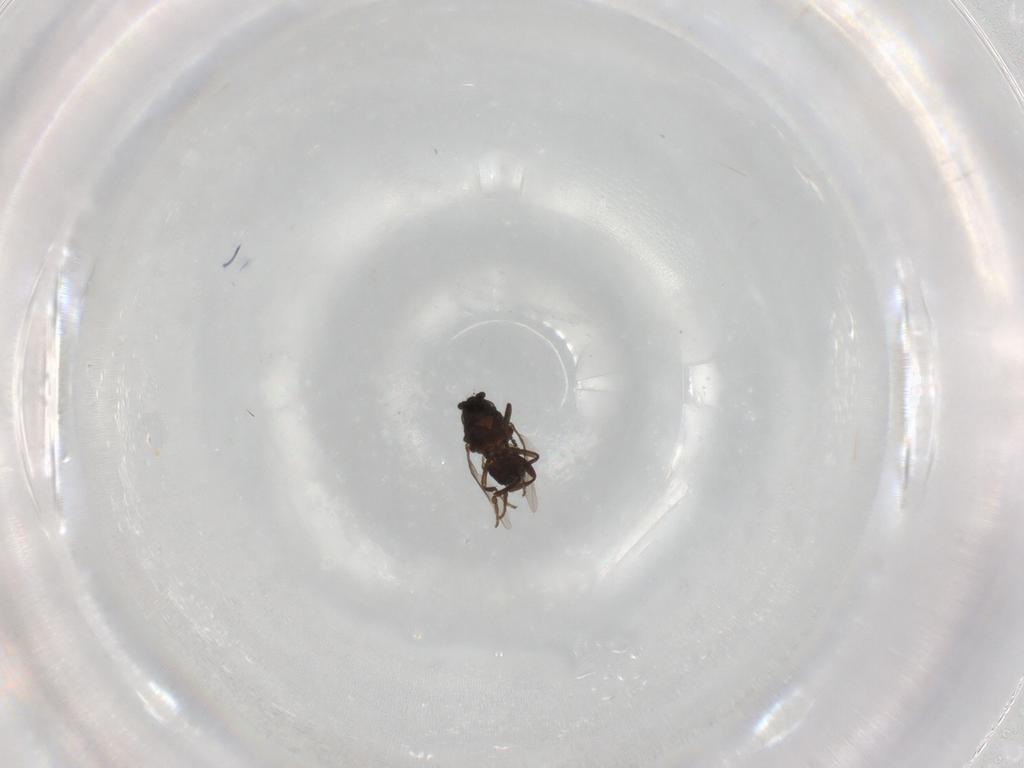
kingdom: Animalia
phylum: Arthropoda
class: Insecta
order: Diptera
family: Sphaeroceridae
